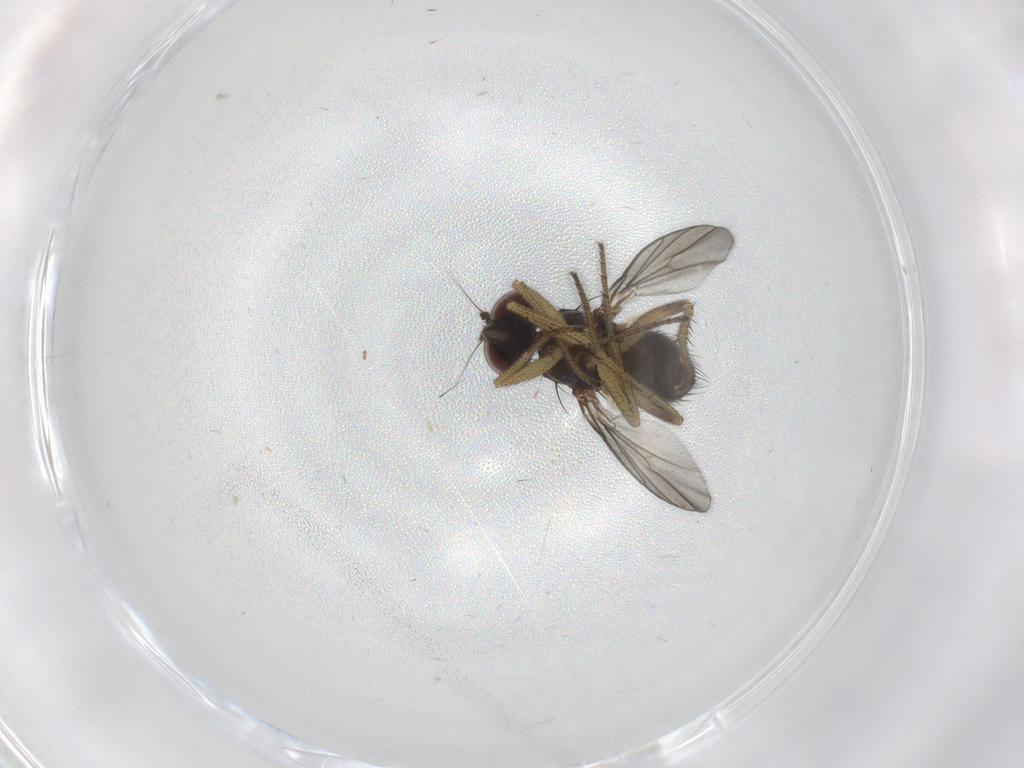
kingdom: Animalia
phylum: Arthropoda
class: Insecta
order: Diptera
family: Dolichopodidae
